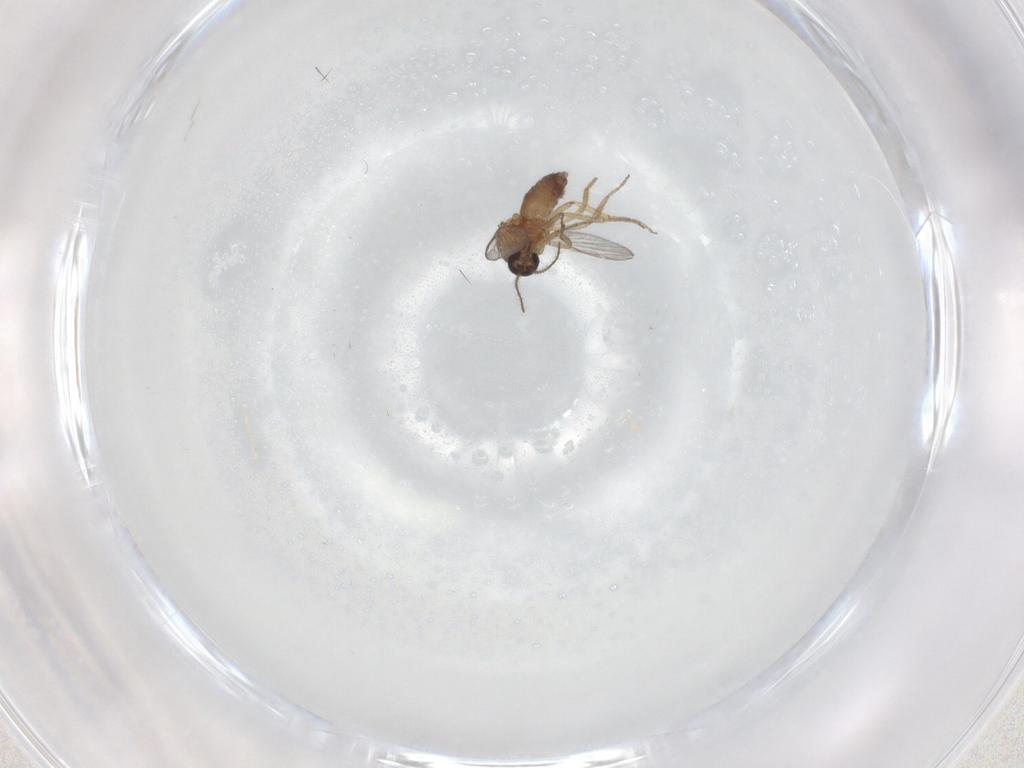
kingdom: Animalia
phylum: Arthropoda
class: Insecta
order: Diptera
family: Ceratopogonidae
